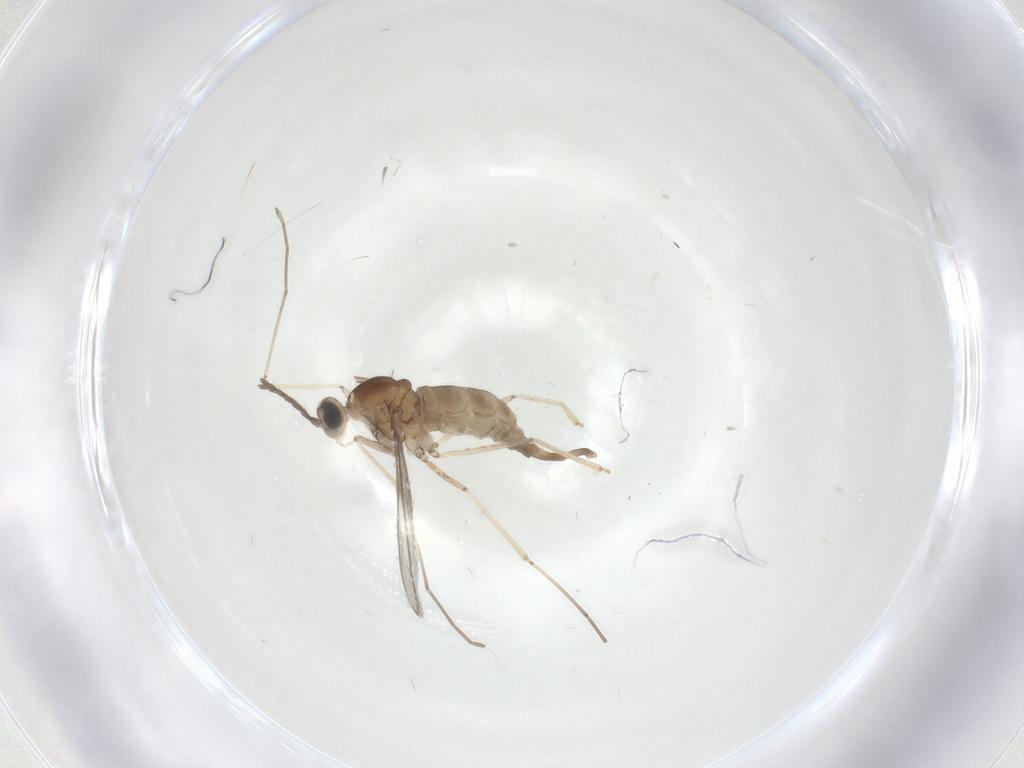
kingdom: Animalia
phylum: Arthropoda
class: Insecta
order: Diptera
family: Cecidomyiidae
